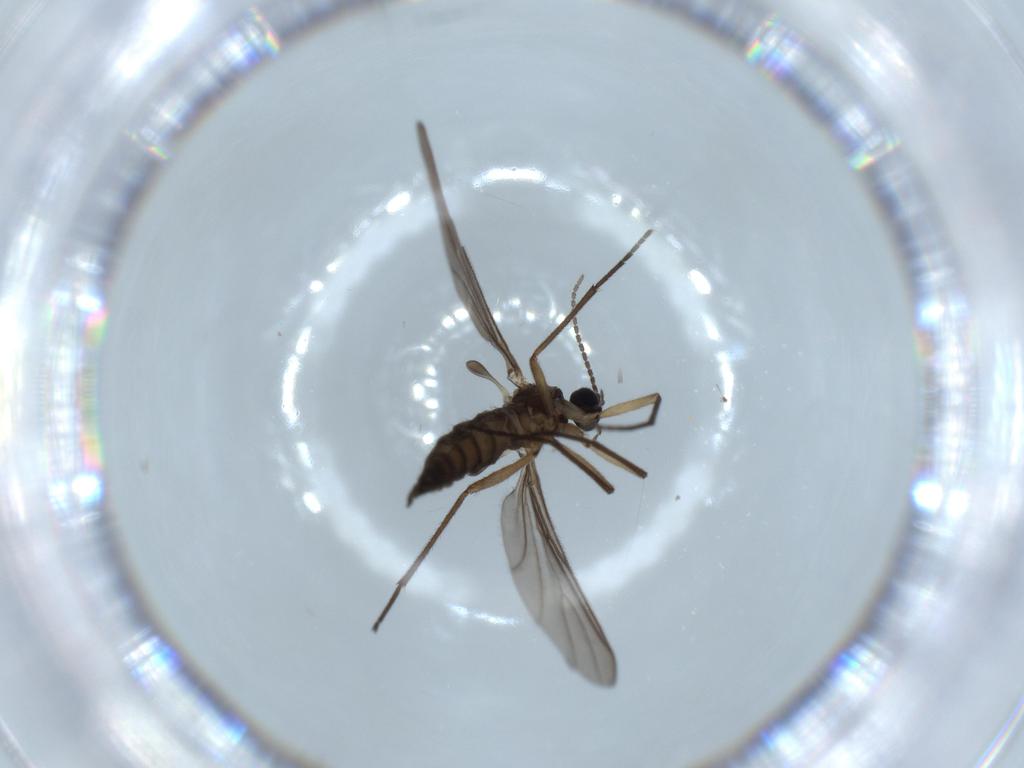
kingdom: Animalia
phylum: Arthropoda
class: Insecta
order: Diptera
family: Sciaridae
